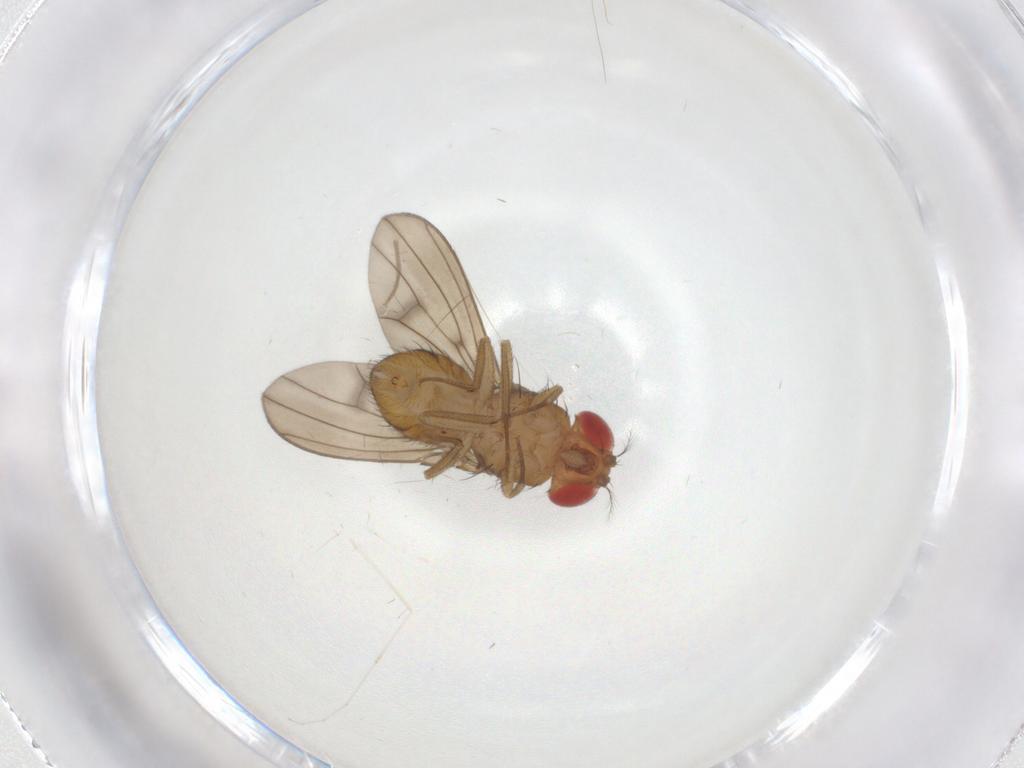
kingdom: Animalia
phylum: Arthropoda
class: Insecta
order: Diptera
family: Drosophilidae
